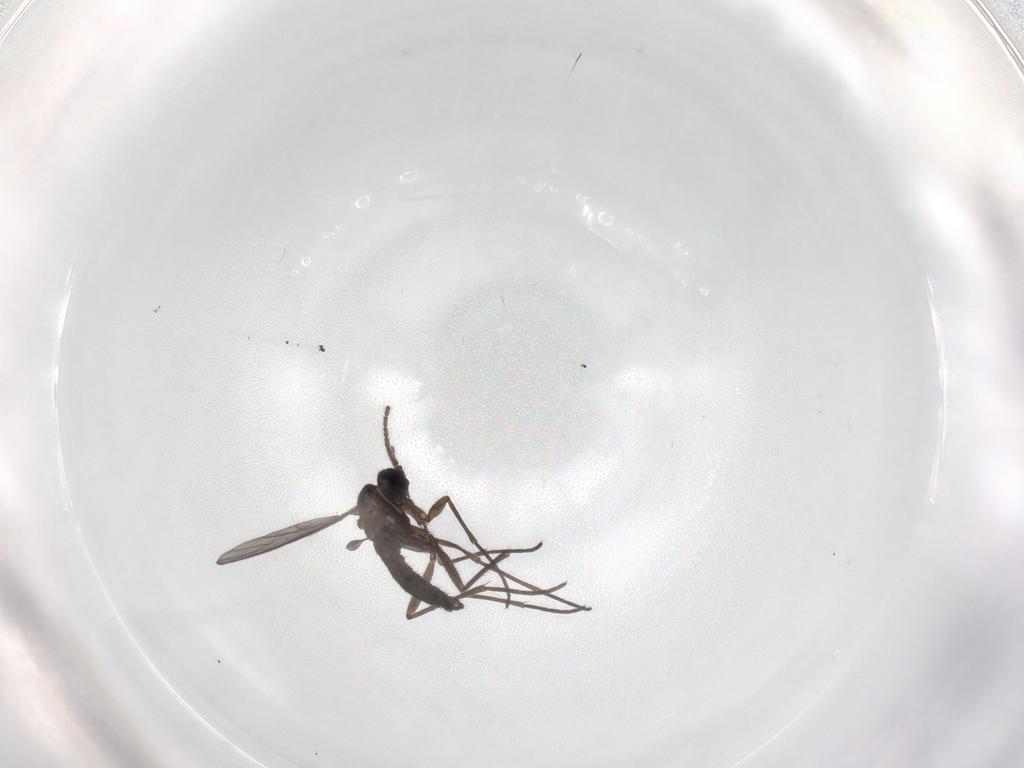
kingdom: Animalia
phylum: Arthropoda
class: Insecta
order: Diptera
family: Sciaridae
